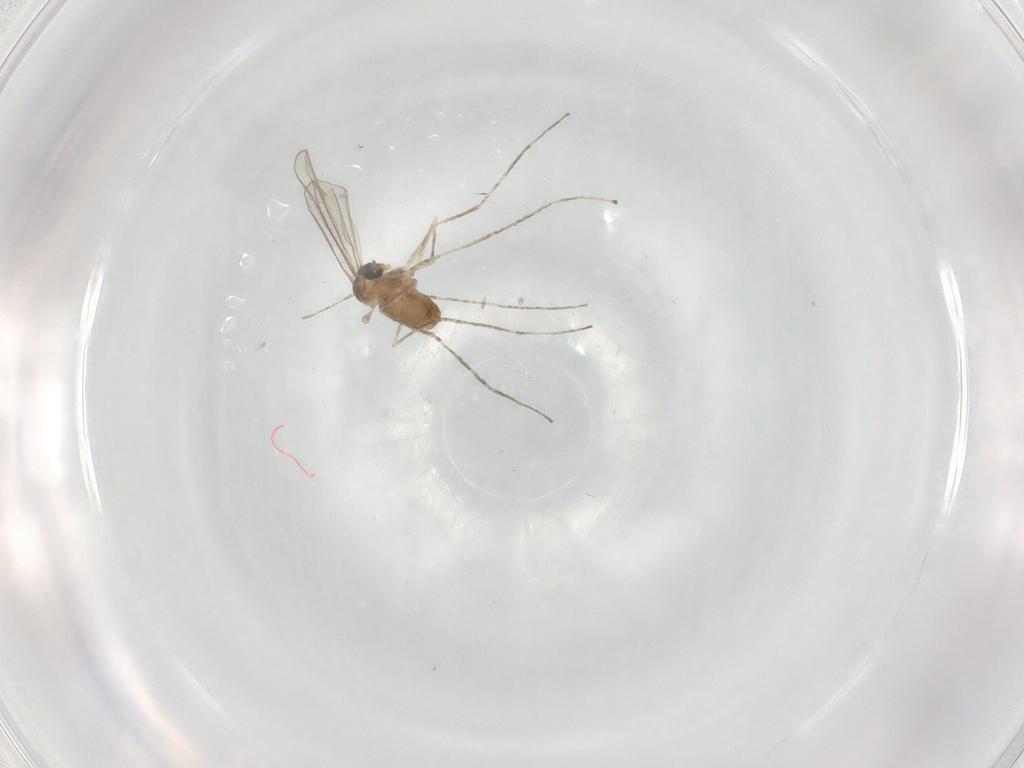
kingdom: Animalia
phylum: Arthropoda
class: Insecta
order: Diptera
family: Cecidomyiidae
